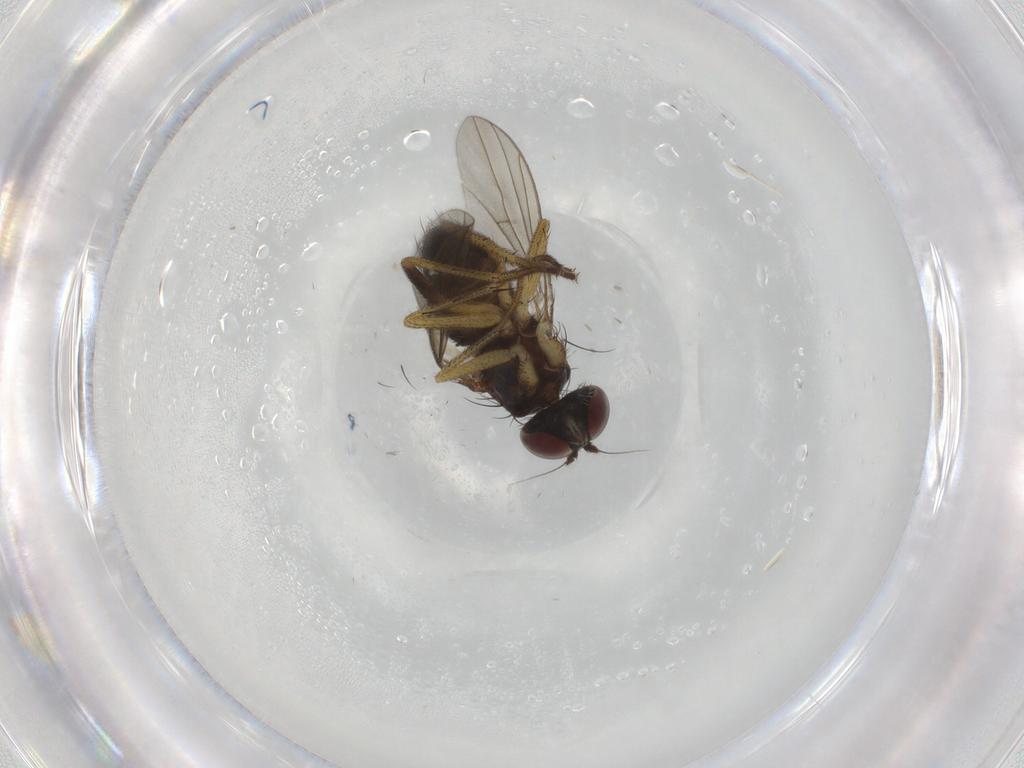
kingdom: Animalia
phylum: Arthropoda
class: Insecta
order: Diptera
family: Dolichopodidae
